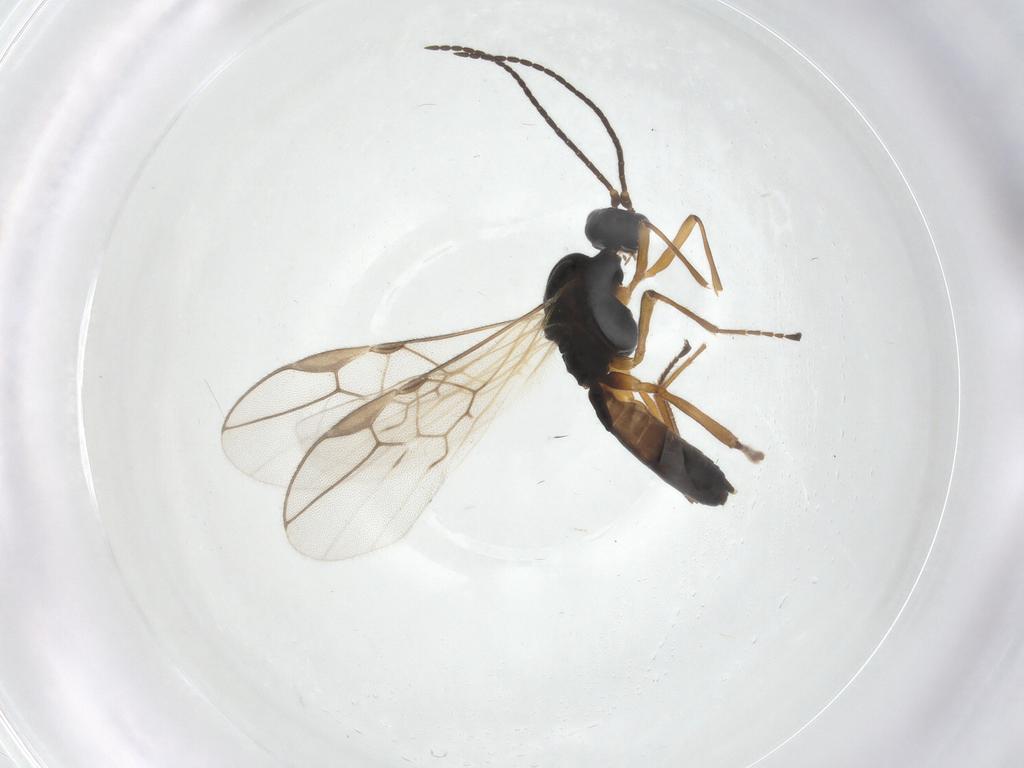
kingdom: Animalia
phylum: Arthropoda
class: Insecta
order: Hymenoptera
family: Braconidae
